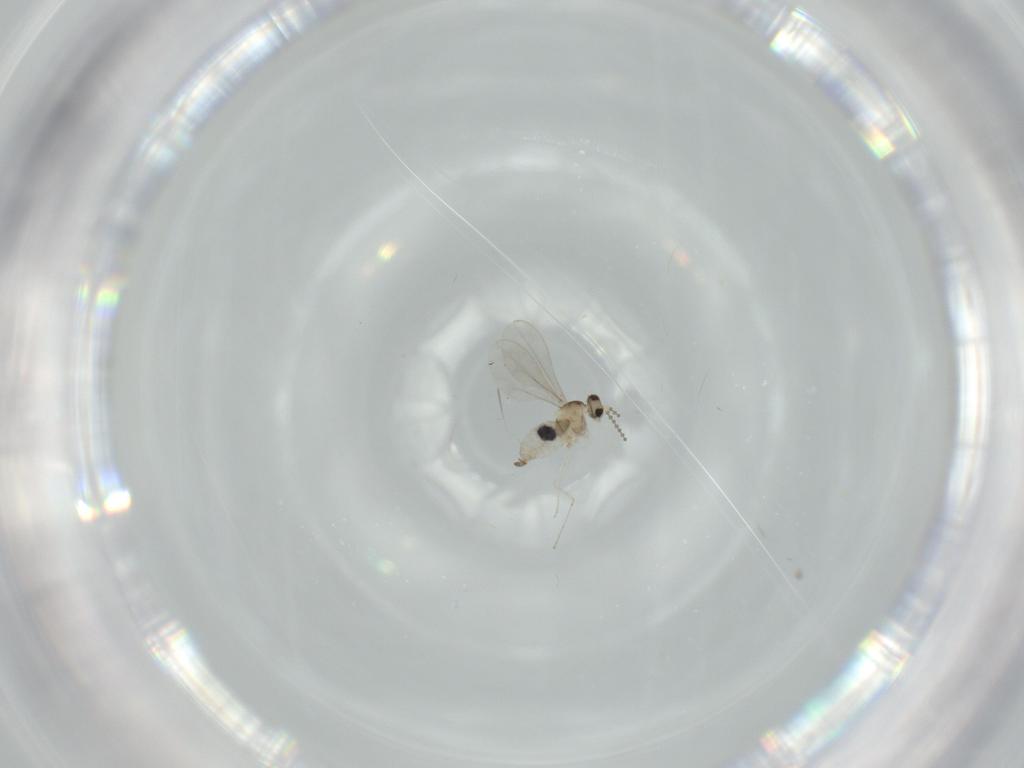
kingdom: Animalia
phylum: Arthropoda
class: Insecta
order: Diptera
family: Cecidomyiidae
